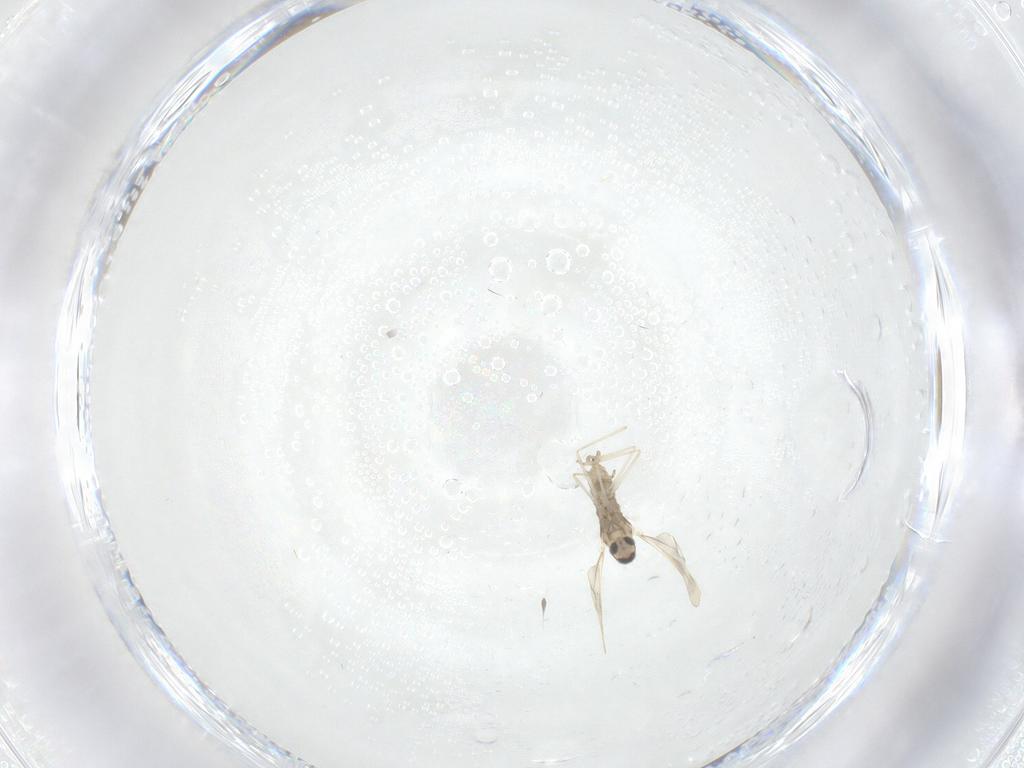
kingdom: Animalia
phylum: Arthropoda
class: Insecta
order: Diptera
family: Cecidomyiidae
